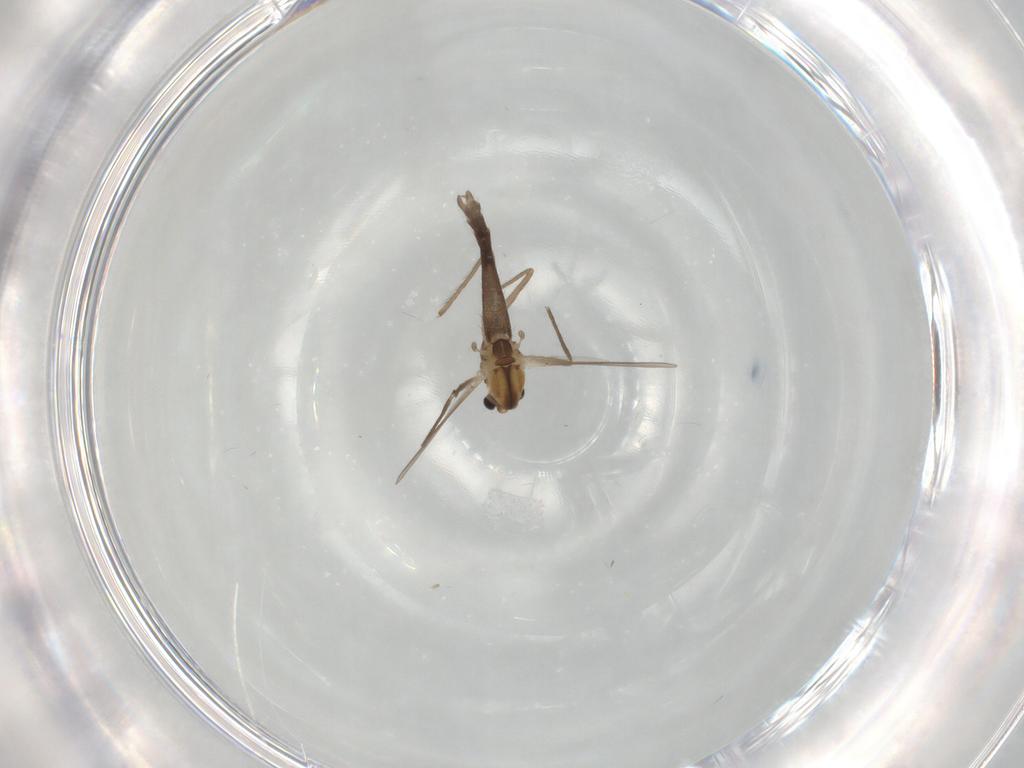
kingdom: Animalia
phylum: Arthropoda
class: Insecta
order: Diptera
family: Chironomidae
